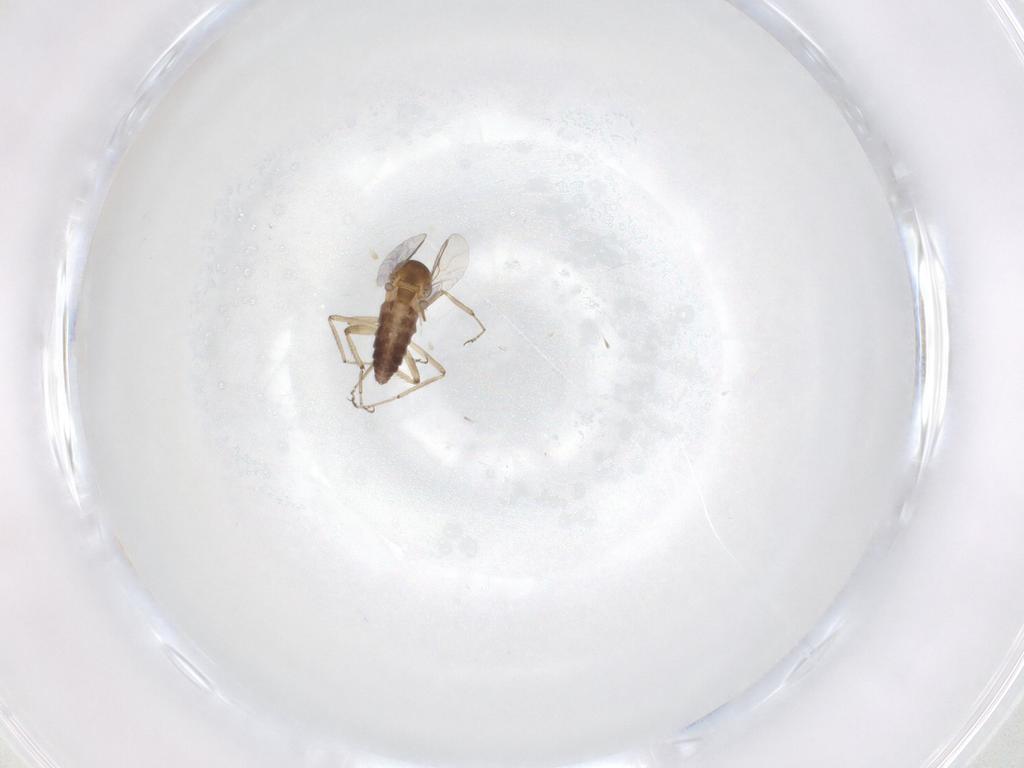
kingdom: Animalia
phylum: Arthropoda
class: Insecta
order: Diptera
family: Ceratopogonidae
